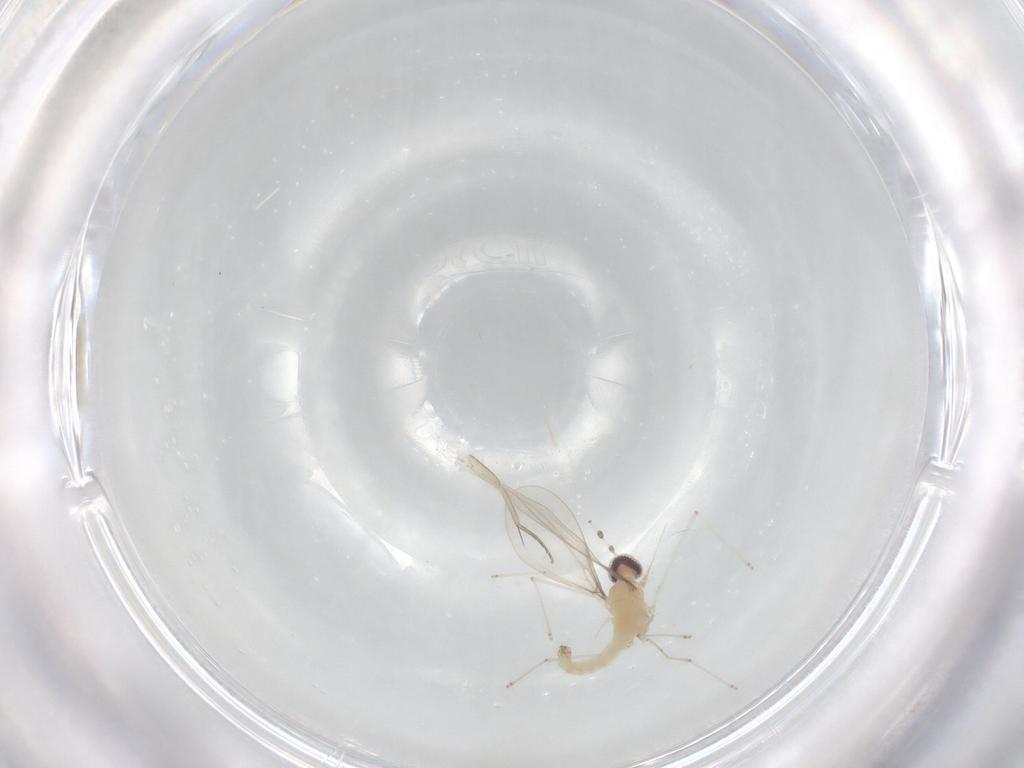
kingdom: Animalia
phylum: Arthropoda
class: Insecta
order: Diptera
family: Cecidomyiidae
